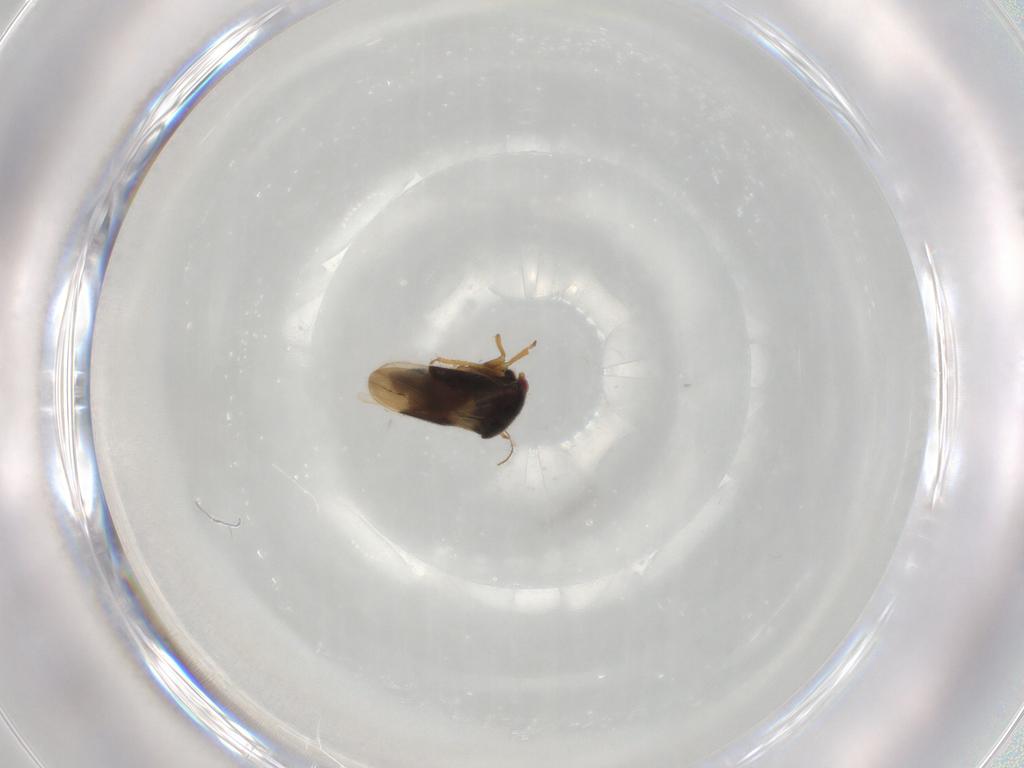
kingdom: Animalia
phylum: Arthropoda
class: Insecta
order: Hemiptera
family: Schizopteridae
